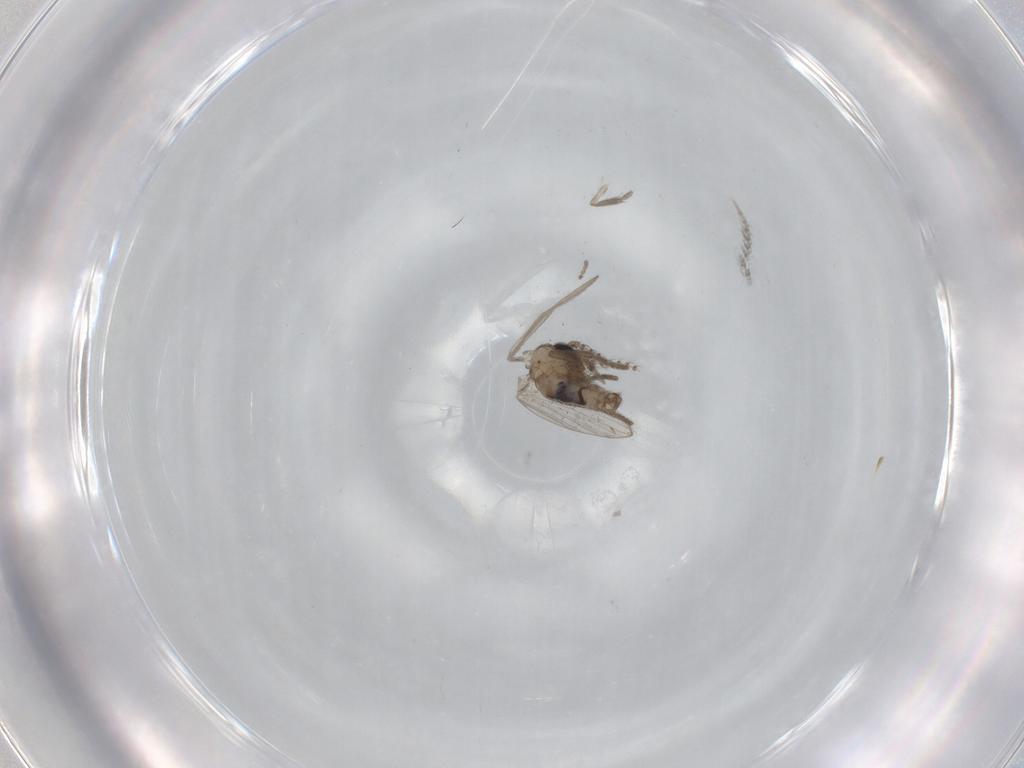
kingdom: Animalia
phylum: Arthropoda
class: Insecta
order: Diptera
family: Psychodidae
